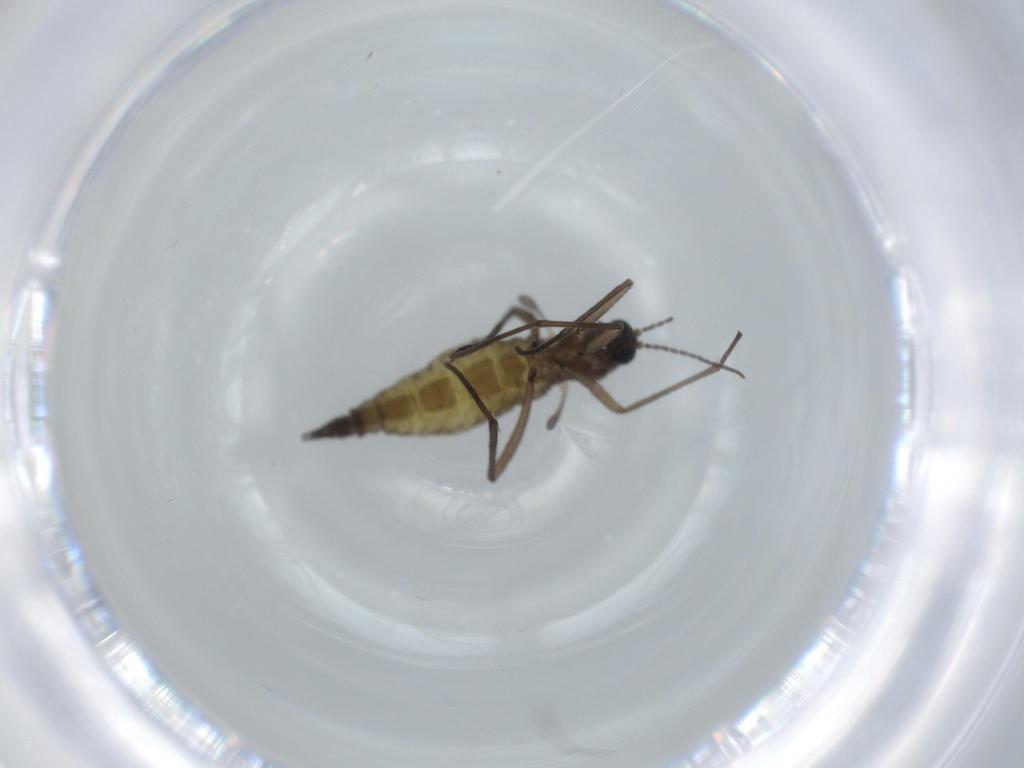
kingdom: Animalia
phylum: Arthropoda
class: Insecta
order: Diptera
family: Sciaridae
